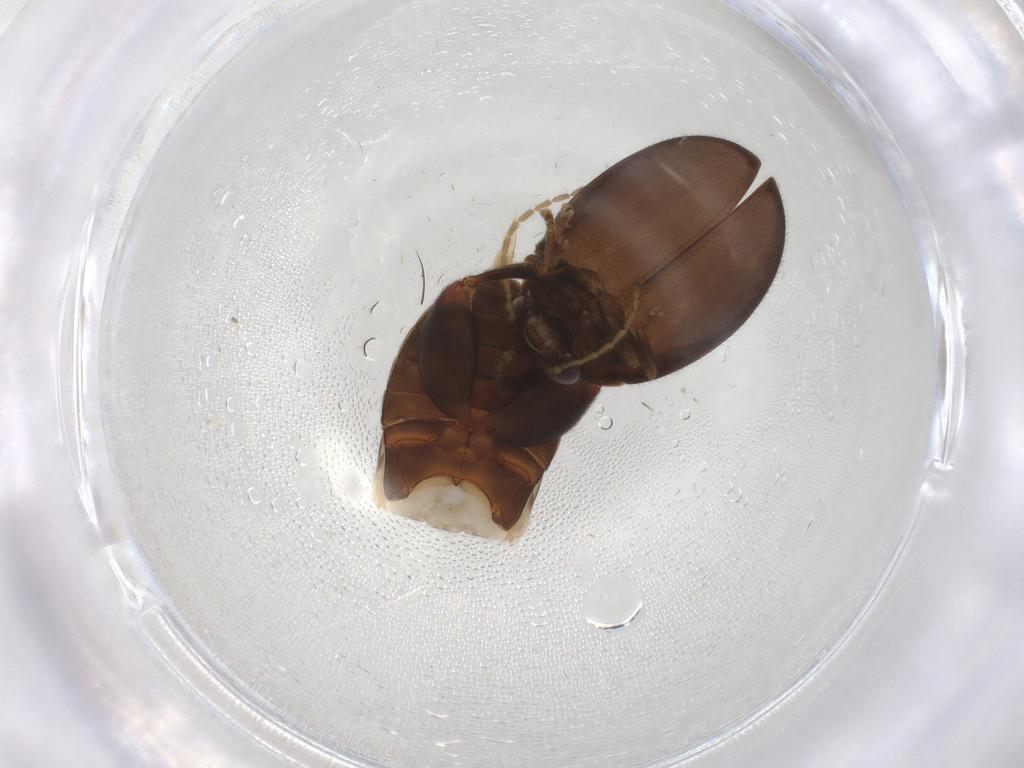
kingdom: Animalia
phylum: Arthropoda
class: Insecta
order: Coleoptera
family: Scirtidae
